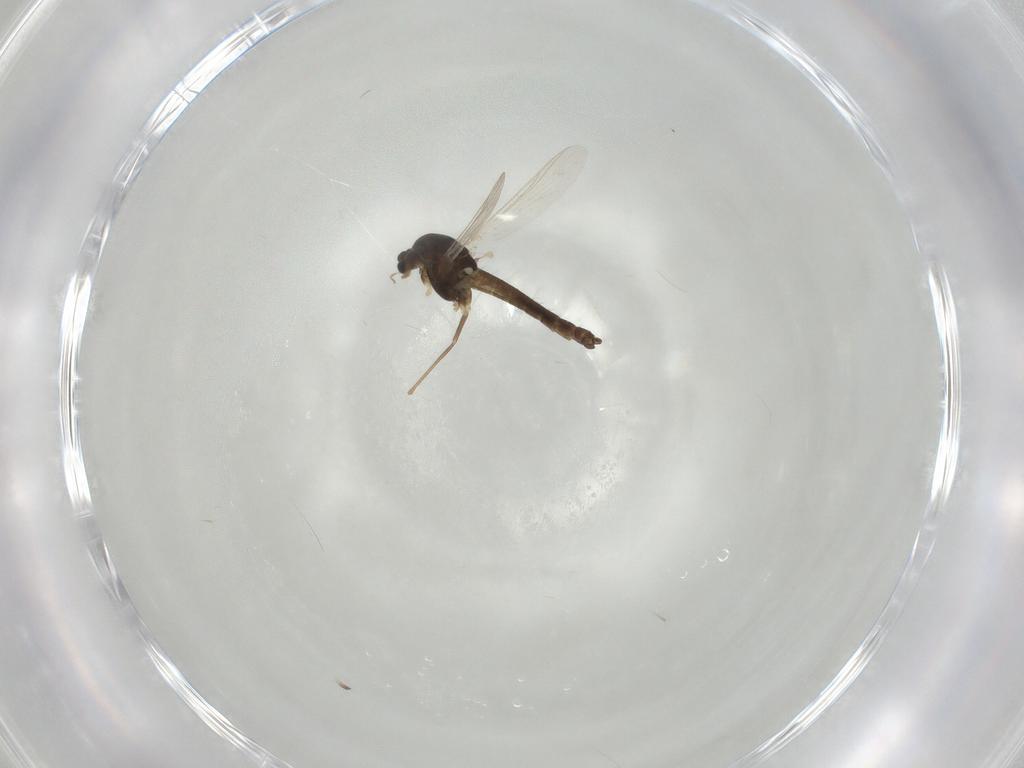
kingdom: Animalia
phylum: Arthropoda
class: Insecta
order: Diptera
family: Chironomidae
